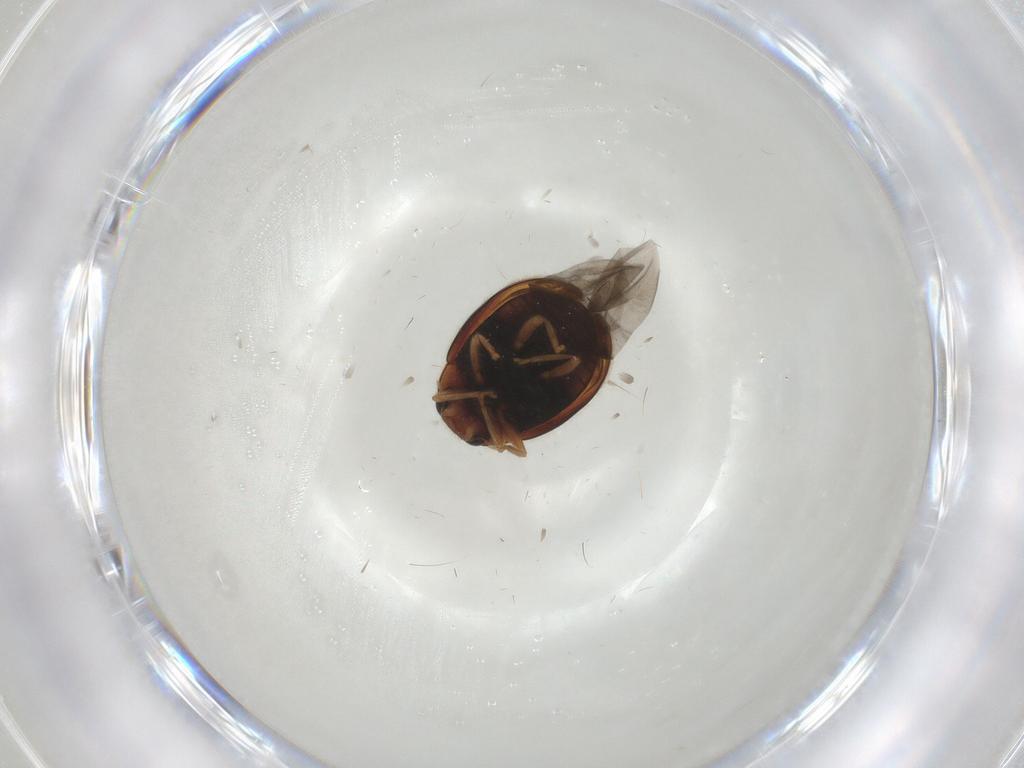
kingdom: Animalia
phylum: Arthropoda
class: Insecta
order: Coleoptera
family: Coccinellidae
